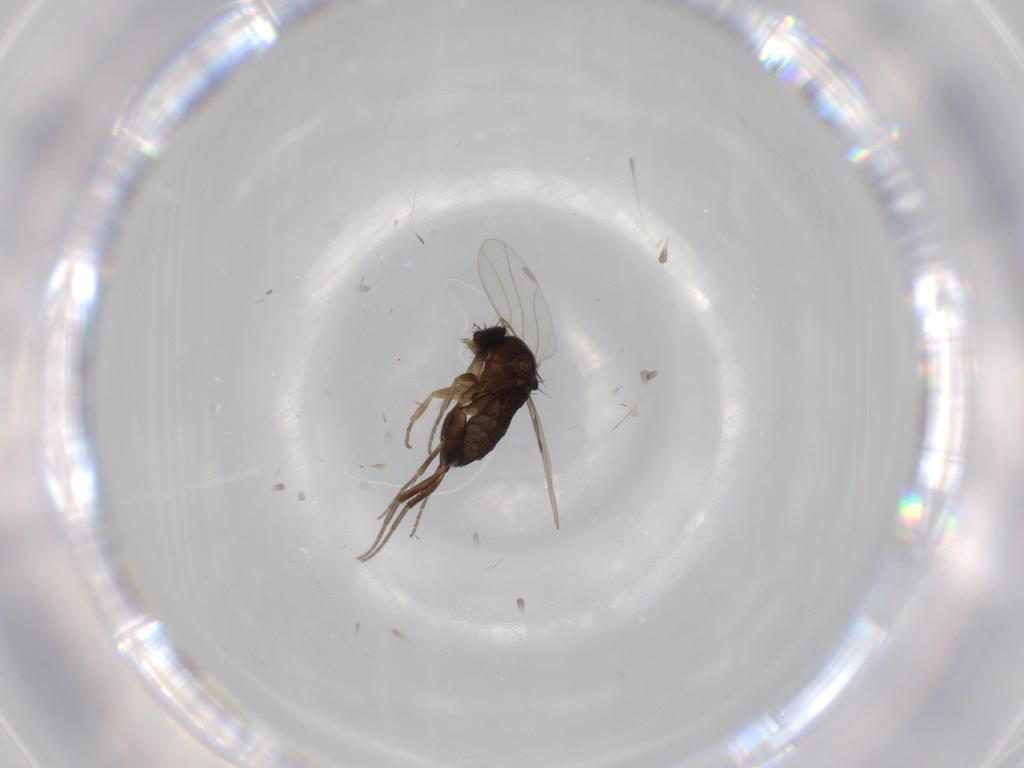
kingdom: Animalia
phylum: Arthropoda
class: Insecta
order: Diptera
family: Phoridae
